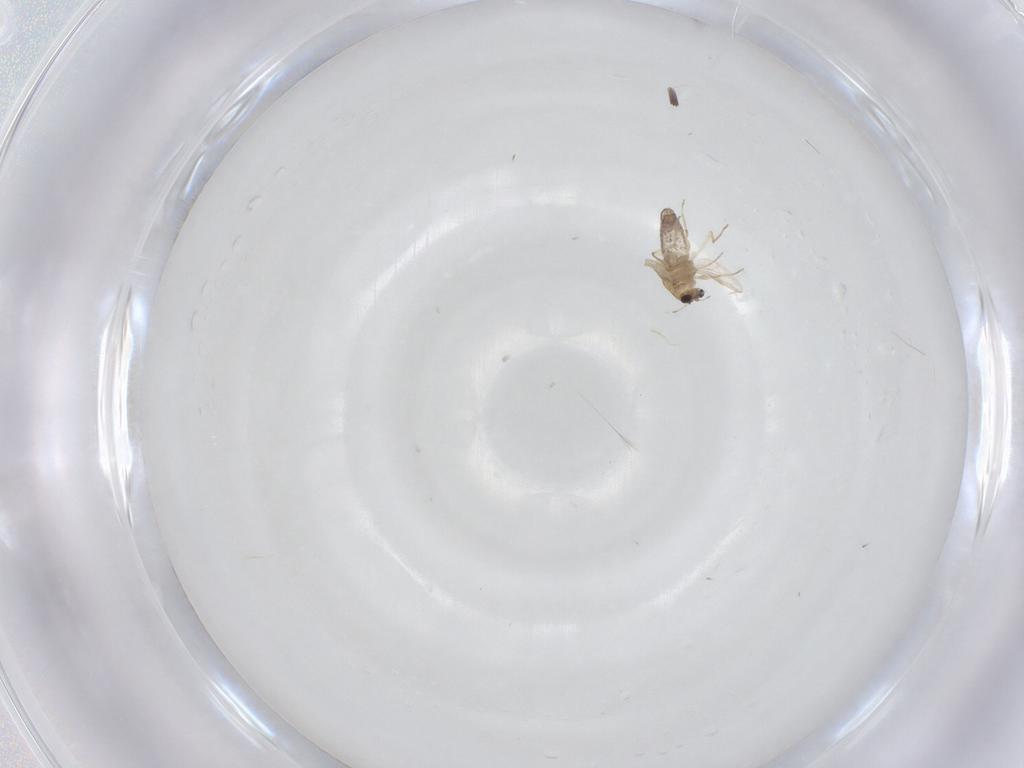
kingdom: Animalia
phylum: Arthropoda
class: Insecta
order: Diptera
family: Chironomidae
